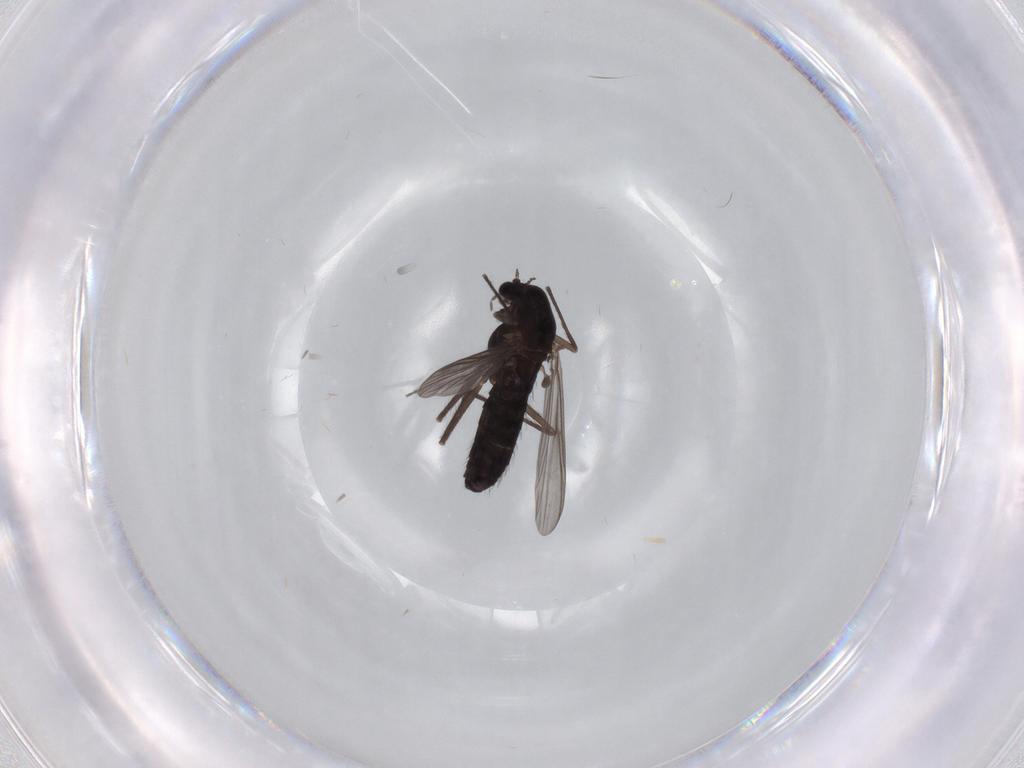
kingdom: Animalia
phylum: Arthropoda
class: Insecta
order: Diptera
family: Chironomidae
